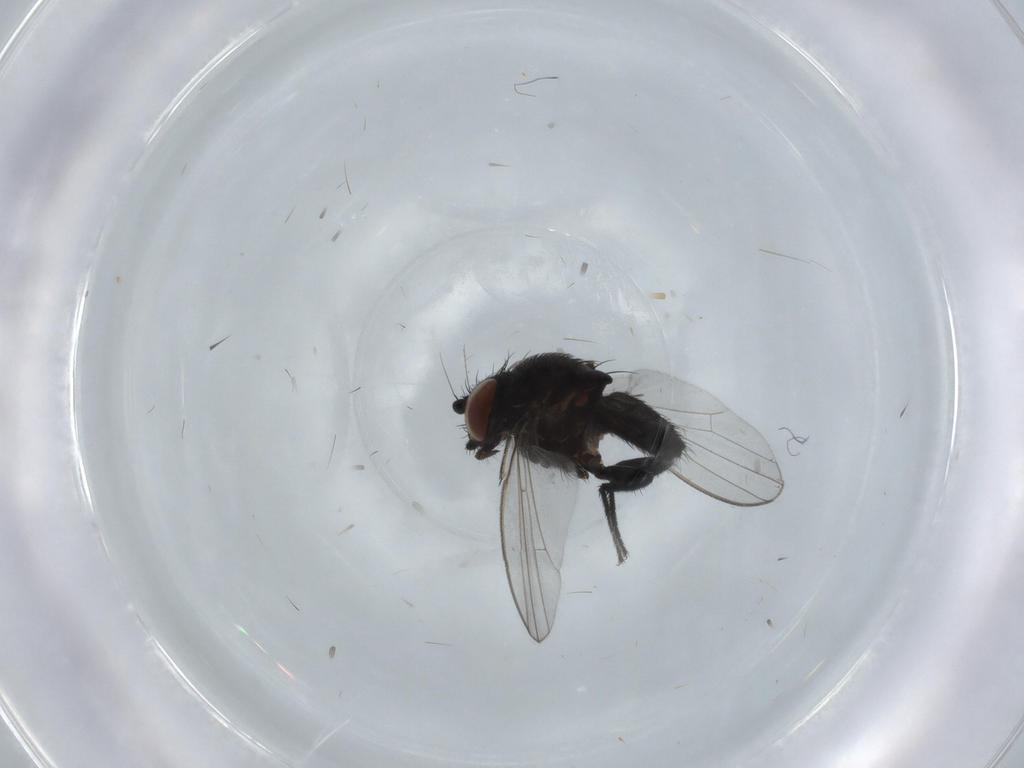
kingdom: Animalia
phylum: Arthropoda
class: Insecta
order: Diptera
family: Milichiidae
